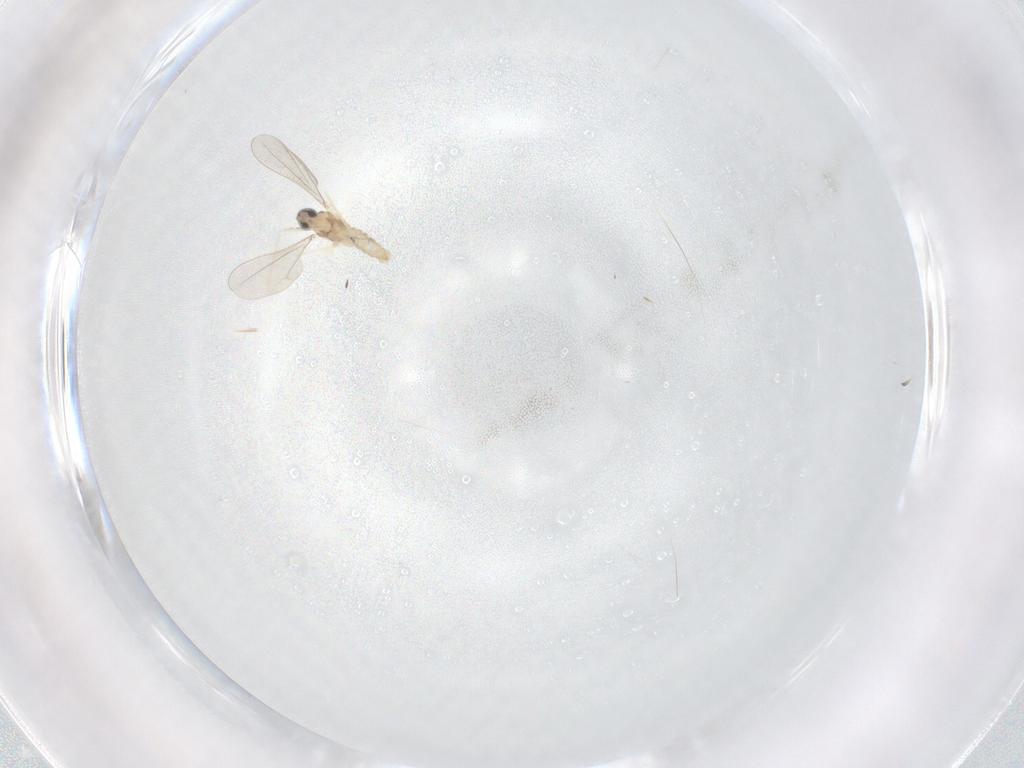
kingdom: Animalia
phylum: Arthropoda
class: Insecta
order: Diptera
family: Cecidomyiidae
